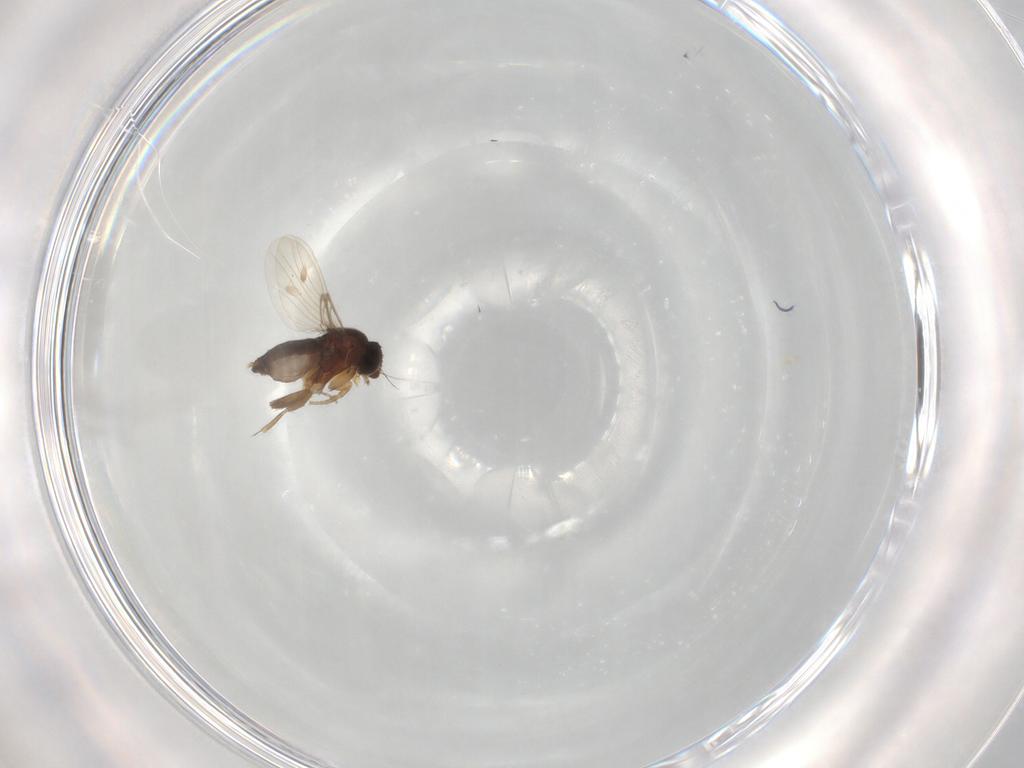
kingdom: Animalia
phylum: Arthropoda
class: Insecta
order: Diptera
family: Phoridae
